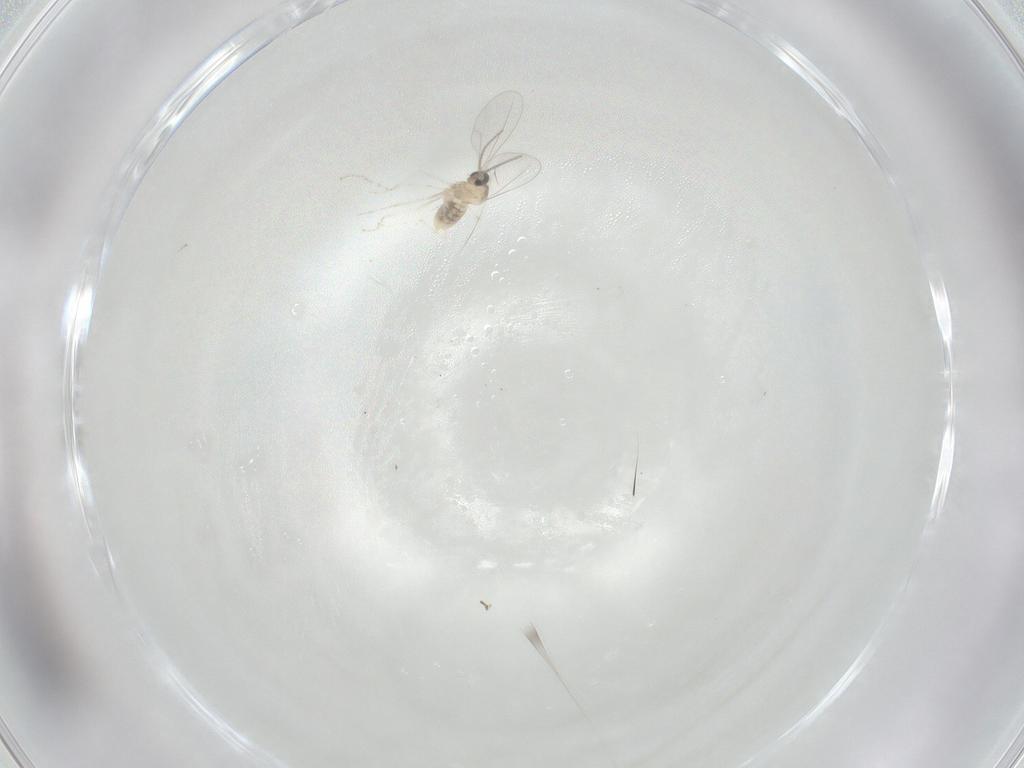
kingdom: Animalia
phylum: Arthropoda
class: Insecta
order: Diptera
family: Cecidomyiidae
